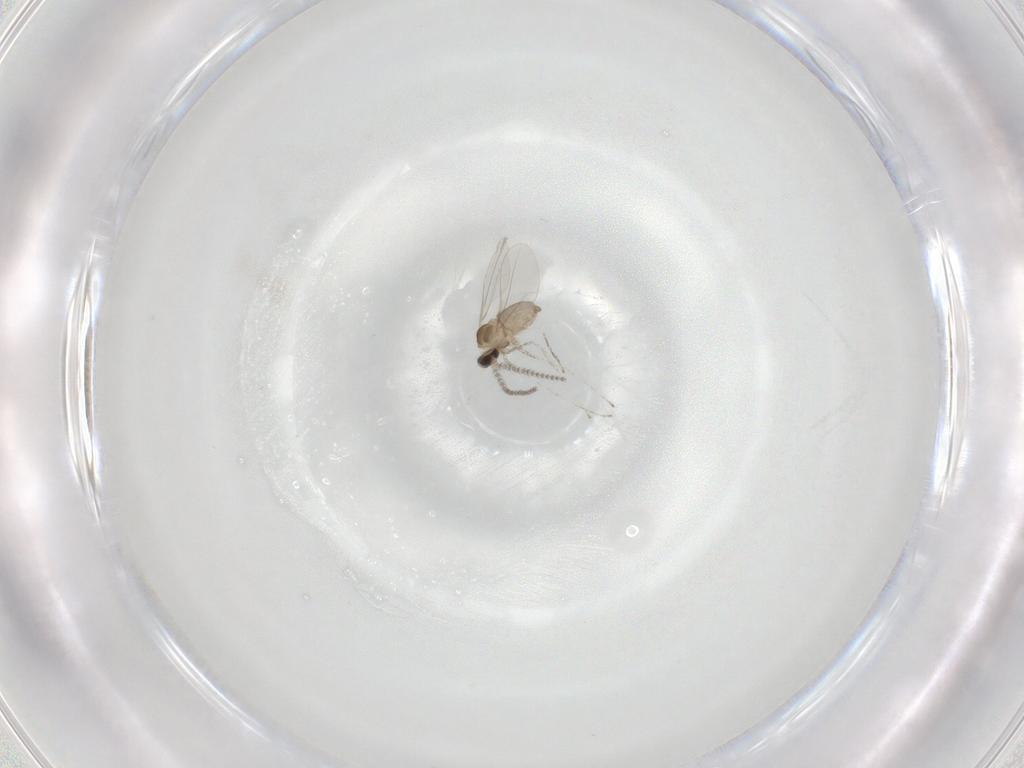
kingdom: Animalia
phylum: Arthropoda
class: Insecta
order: Diptera
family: Cecidomyiidae
